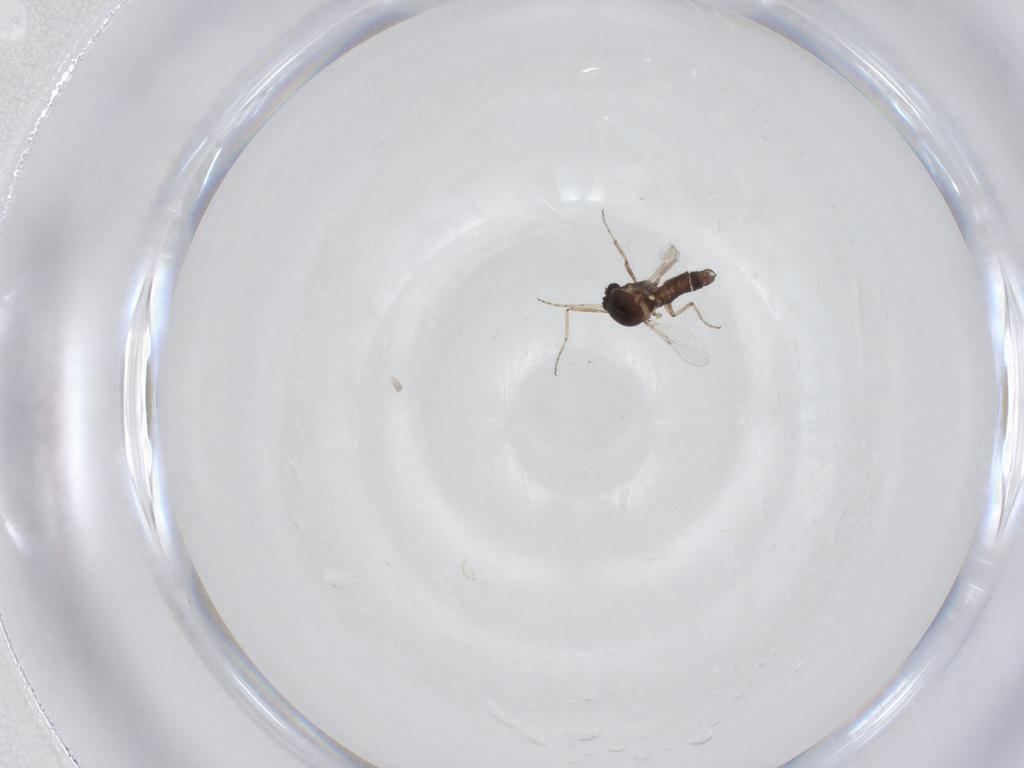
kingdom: Animalia
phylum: Arthropoda
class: Insecta
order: Diptera
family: Ceratopogonidae
